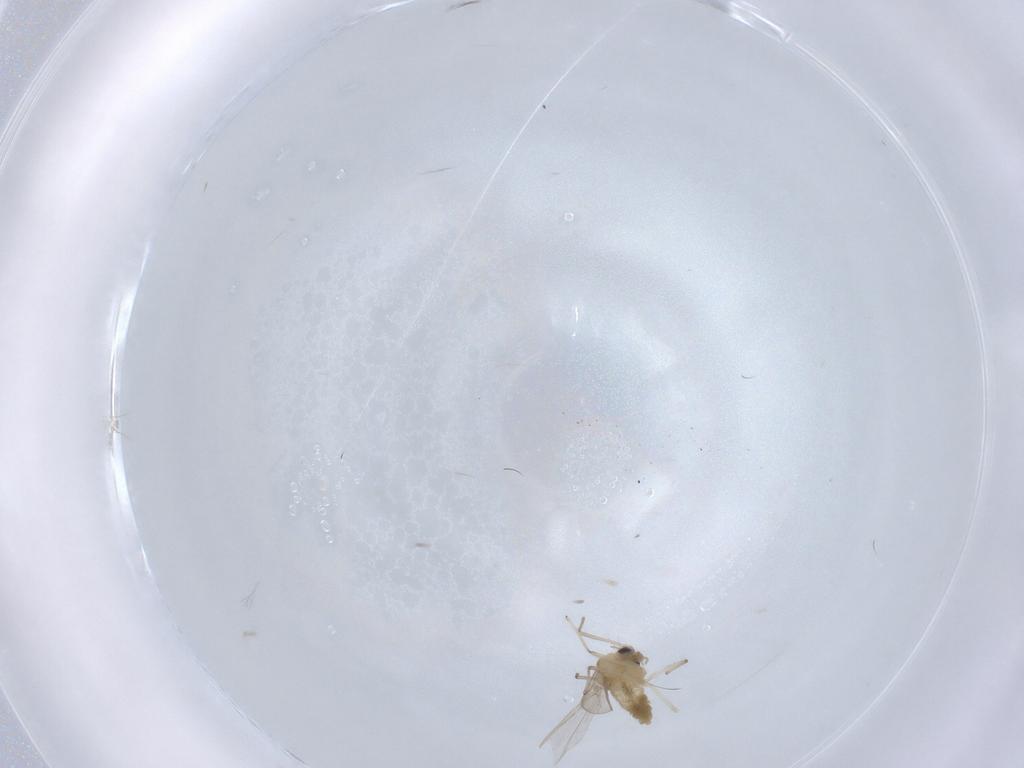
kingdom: Animalia
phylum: Arthropoda
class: Insecta
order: Diptera
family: Chironomidae
